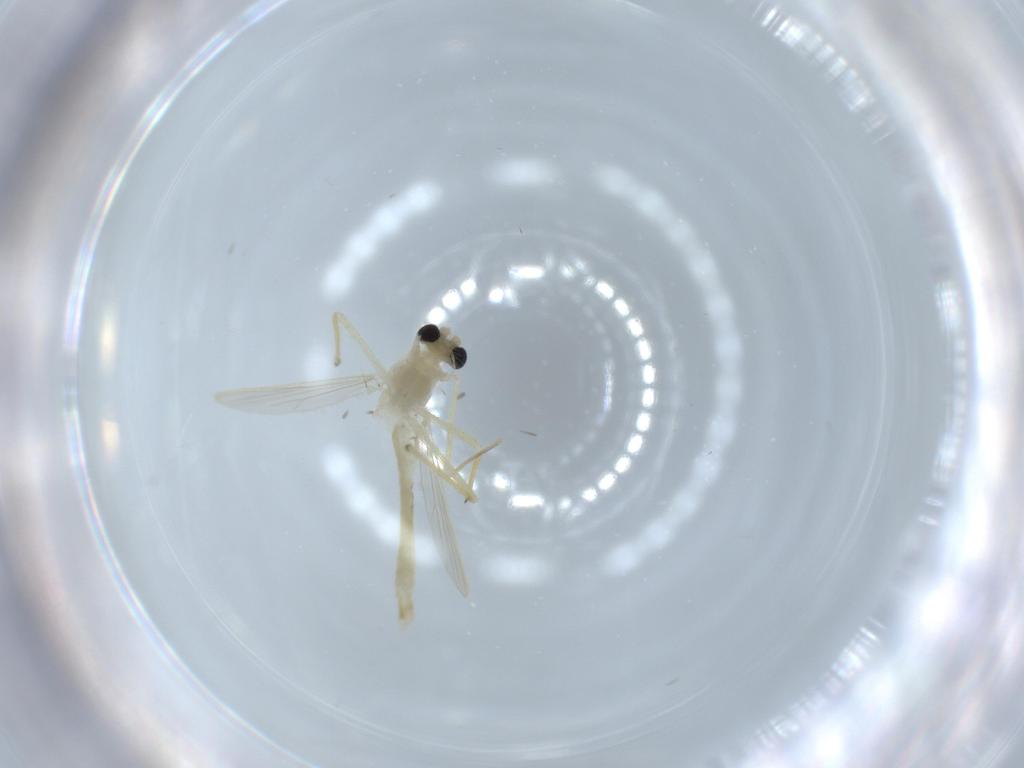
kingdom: Animalia
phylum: Arthropoda
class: Insecta
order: Diptera
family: Chironomidae
